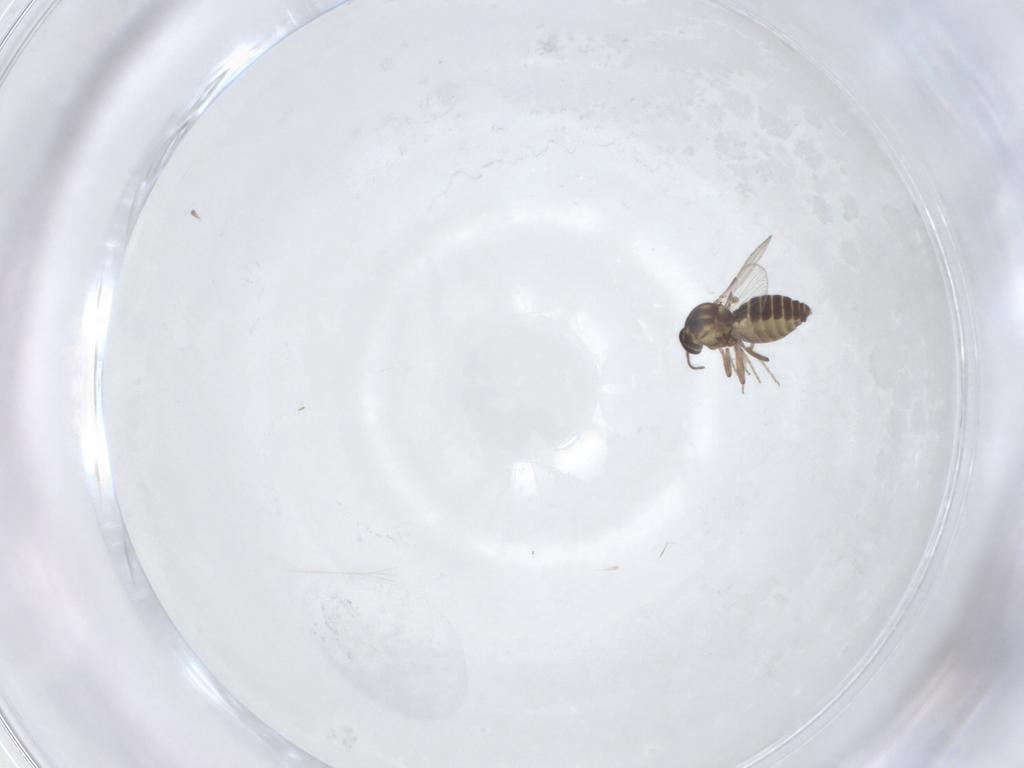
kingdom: Animalia
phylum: Arthropoda
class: Insecta
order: Diptera
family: Ceratopogonidae
